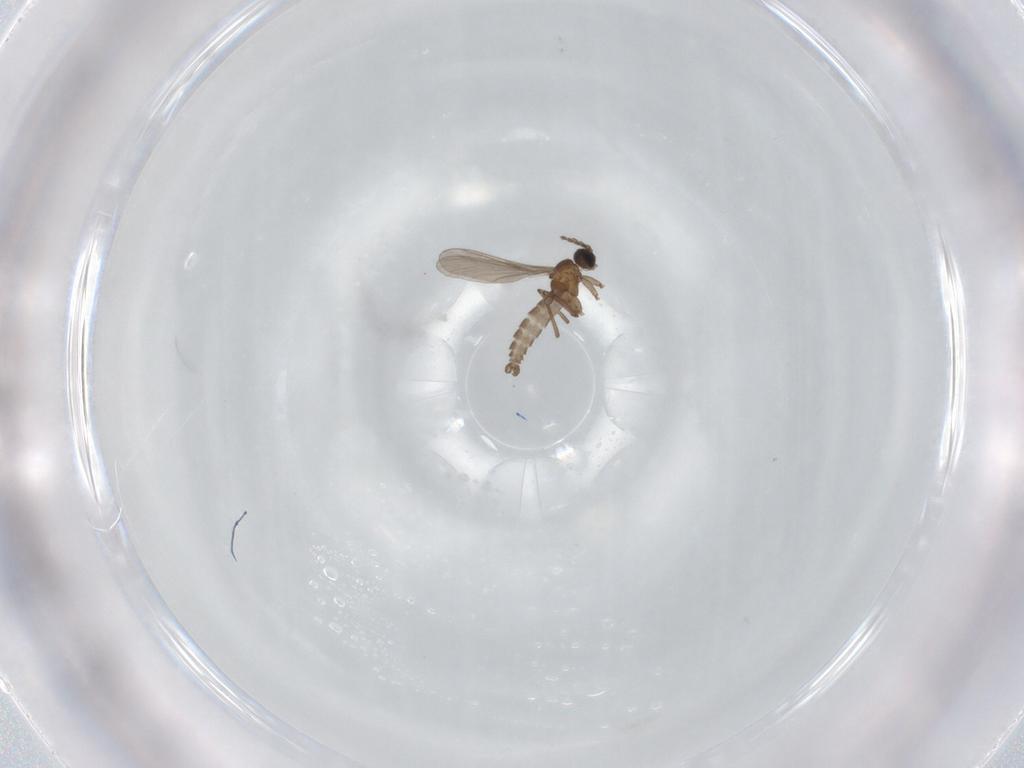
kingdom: Animalia
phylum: Arthropoda
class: Insecta
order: Diptera
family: Sciaridae
